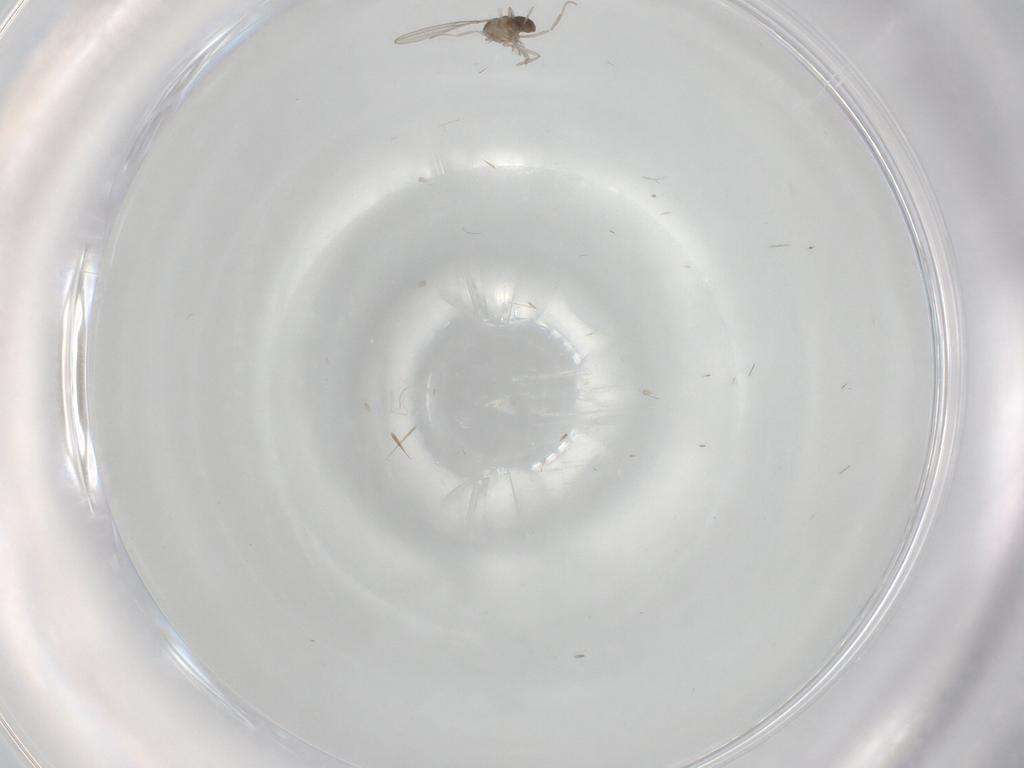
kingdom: Animalia
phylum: Arthropoda
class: Insecta
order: Diptera
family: Cecidomyiidae
